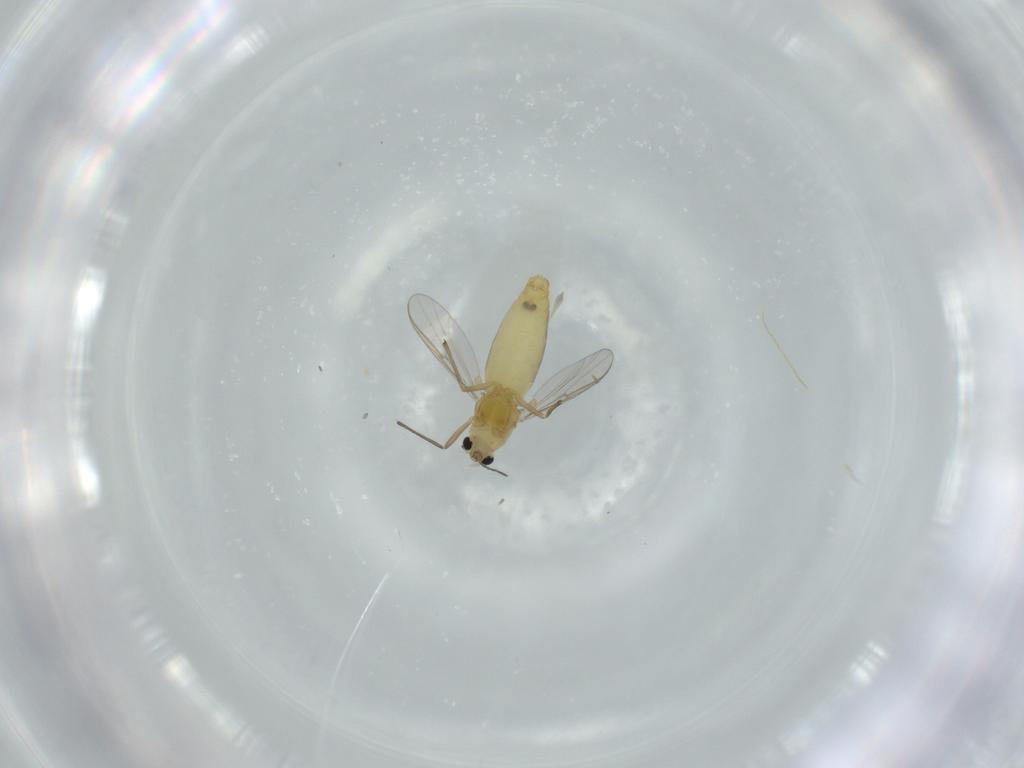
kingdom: Animalia
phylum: Arthropoda
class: Insecta
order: Diptera
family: Chironomidae
